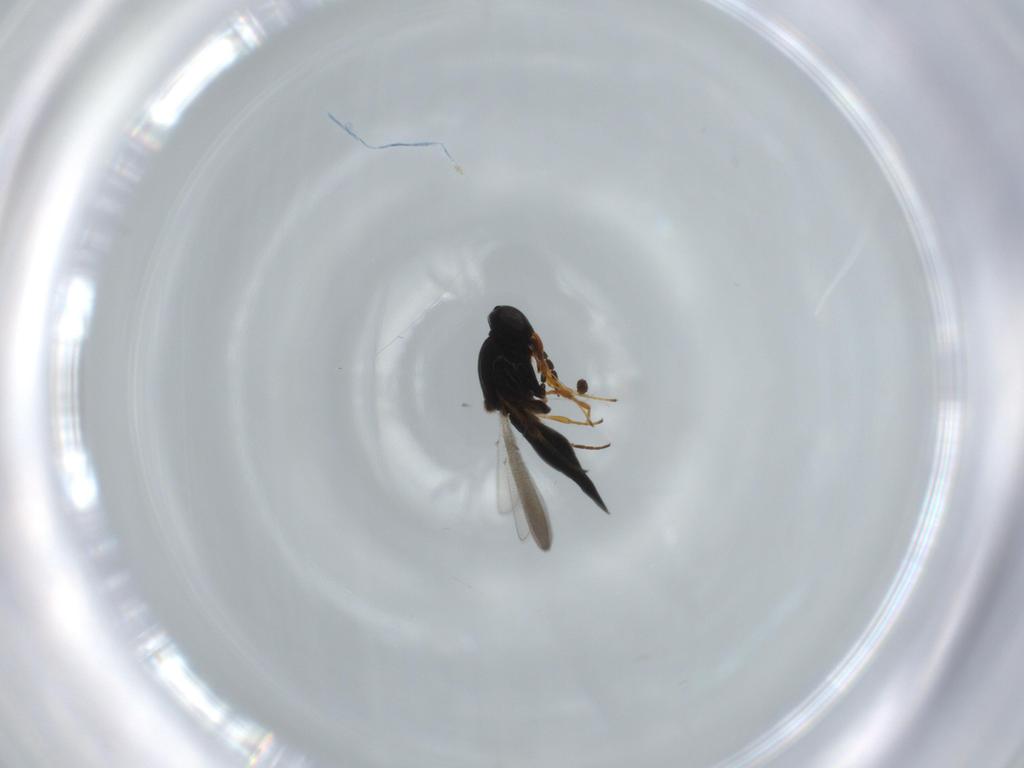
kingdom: Animalia
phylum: Arthropoda
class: Insecta
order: Hymenoptera
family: Platygastridae
